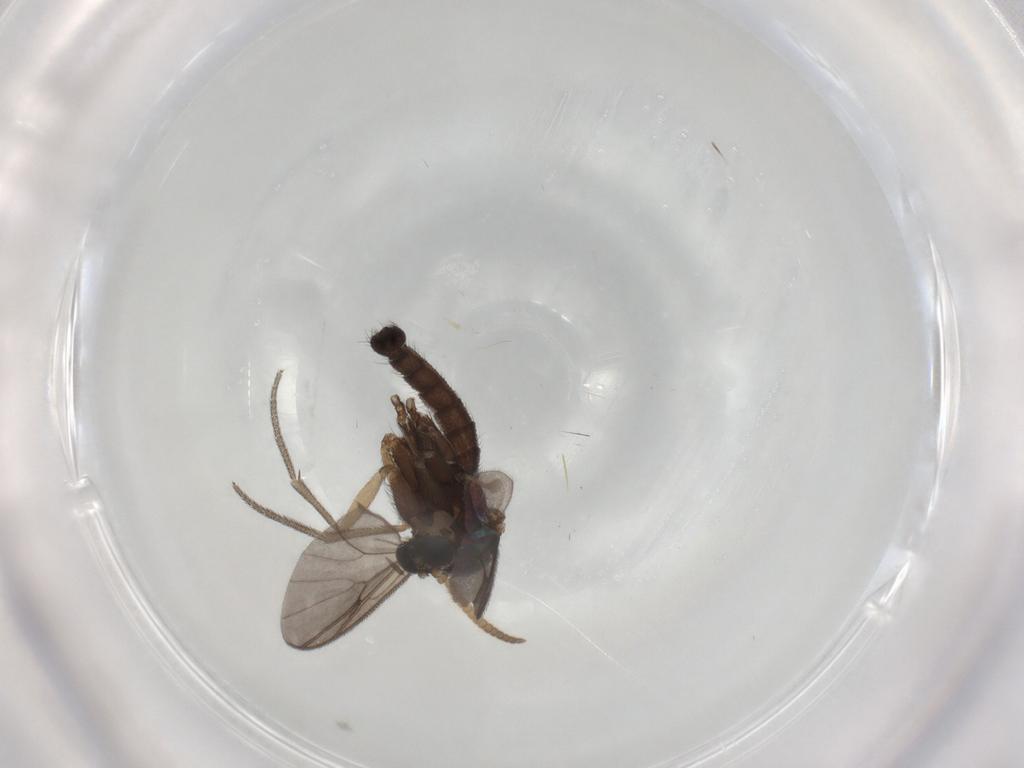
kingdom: Animalia
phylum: Arthropoda
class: Insecta
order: Diptera
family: Mycetophilidae
